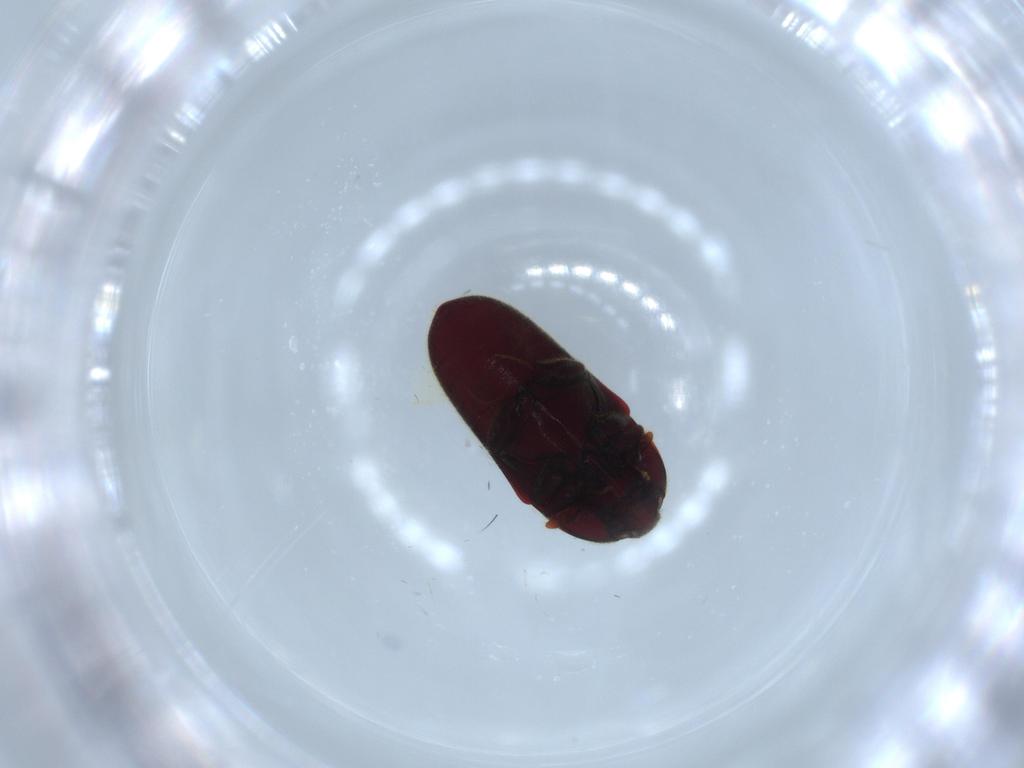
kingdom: Animalia
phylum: Arthropoda
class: Insecta
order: Coleoptera
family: Throscidae
